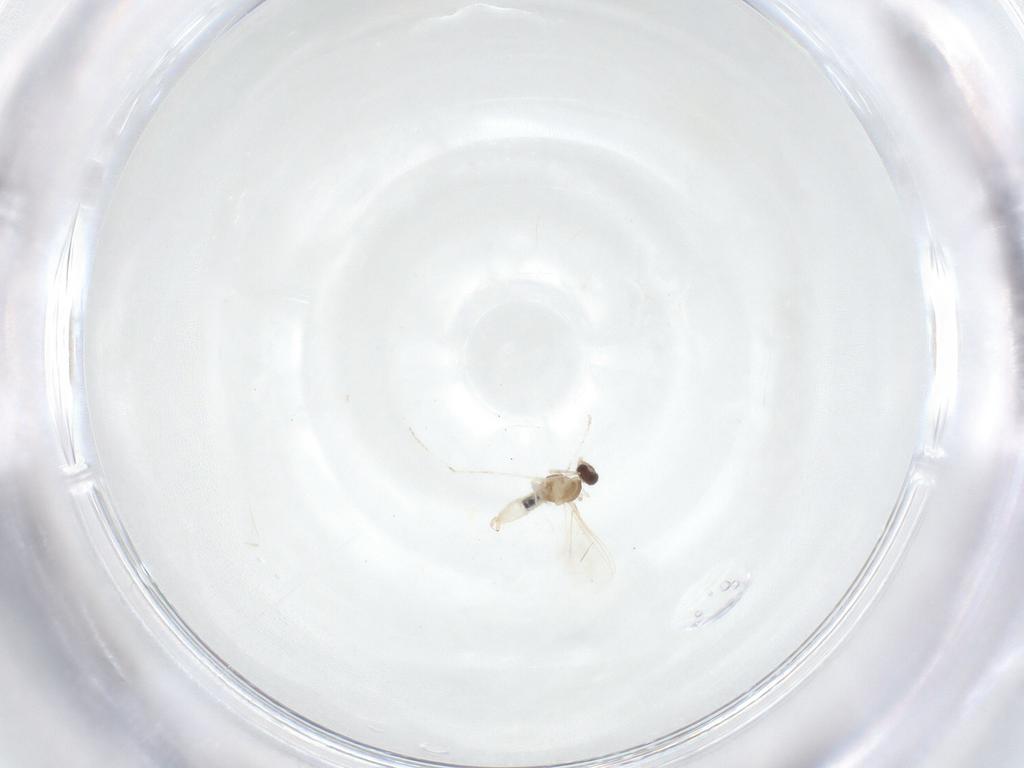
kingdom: Animalia
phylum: Arthropoda
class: Insecta
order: Diptera
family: Cecidomyiidae
